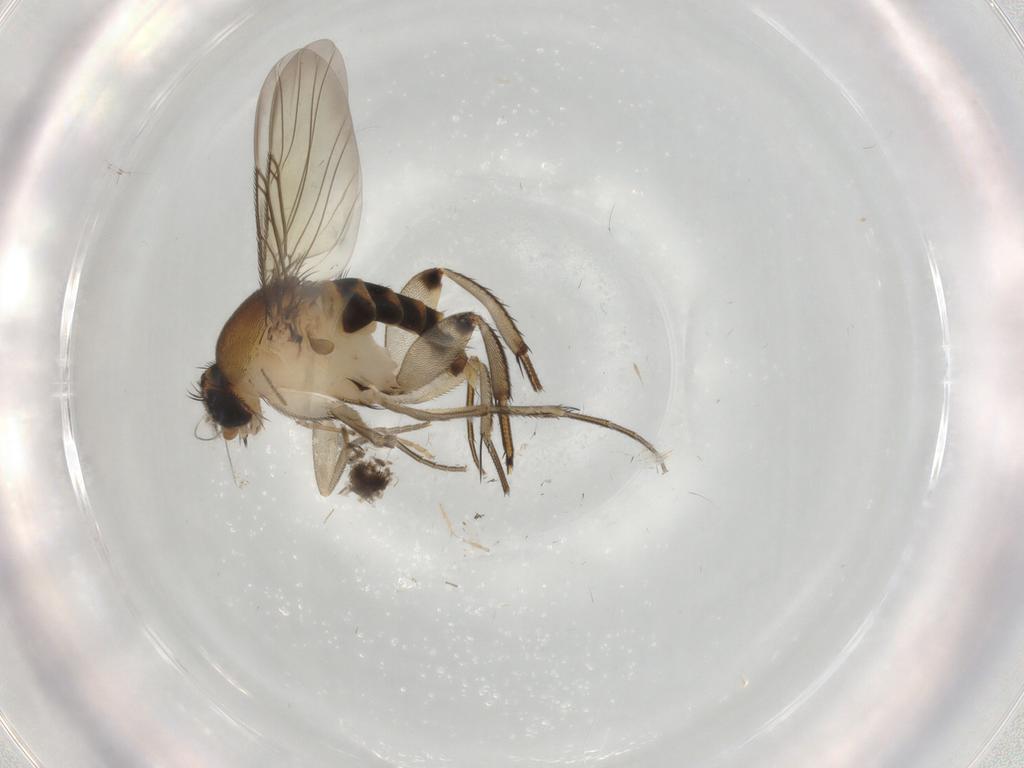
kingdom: Animalia
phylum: Arthropoda
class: Insecta
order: Diptera
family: Phoridae
